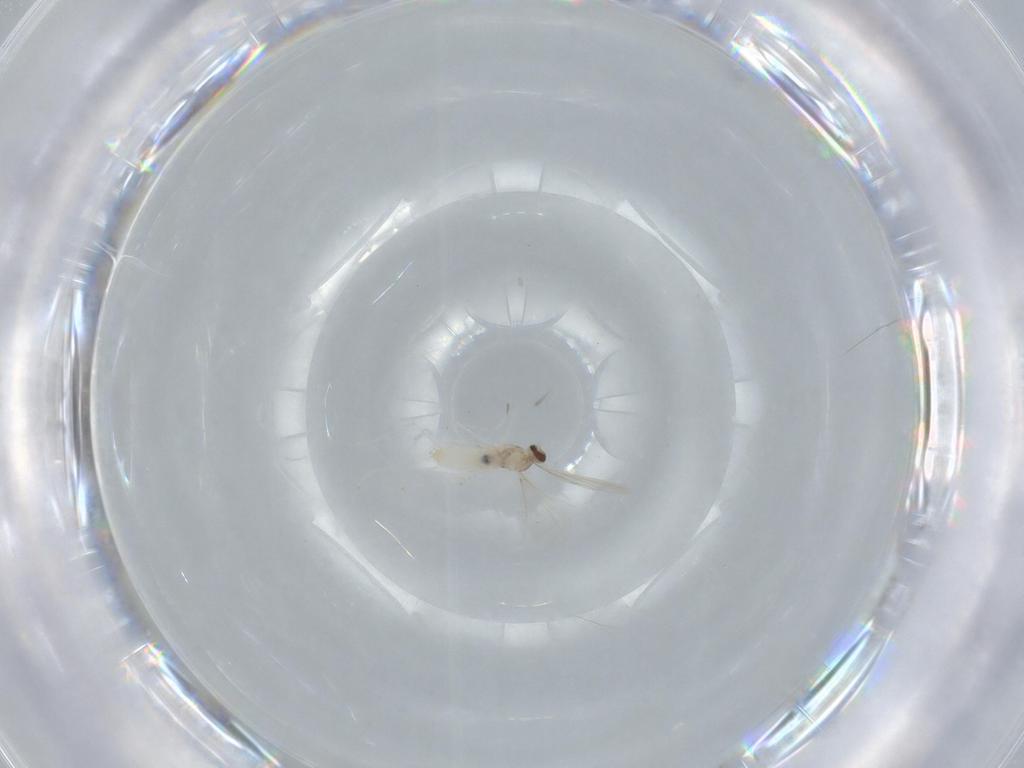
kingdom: Animalia
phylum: Arthropoda
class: Insecta
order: Diptera
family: Cecidomyiidae
